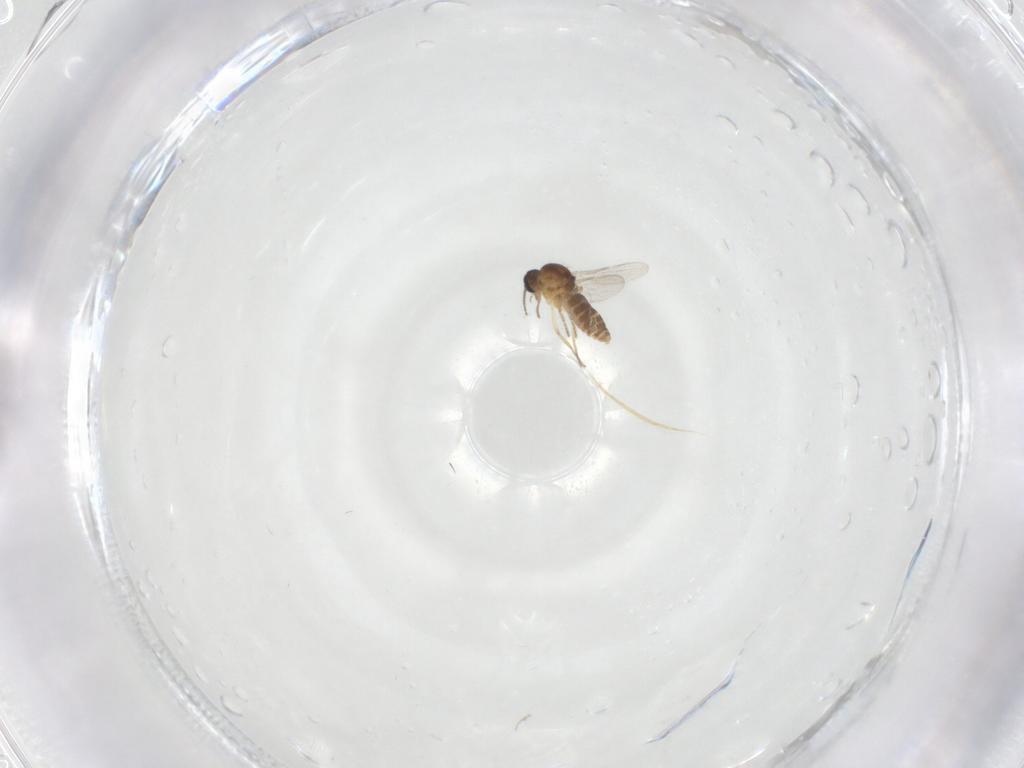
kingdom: Animalia
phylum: Arthropoda
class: Insecta
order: Diptera
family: Ceratopogonidae
